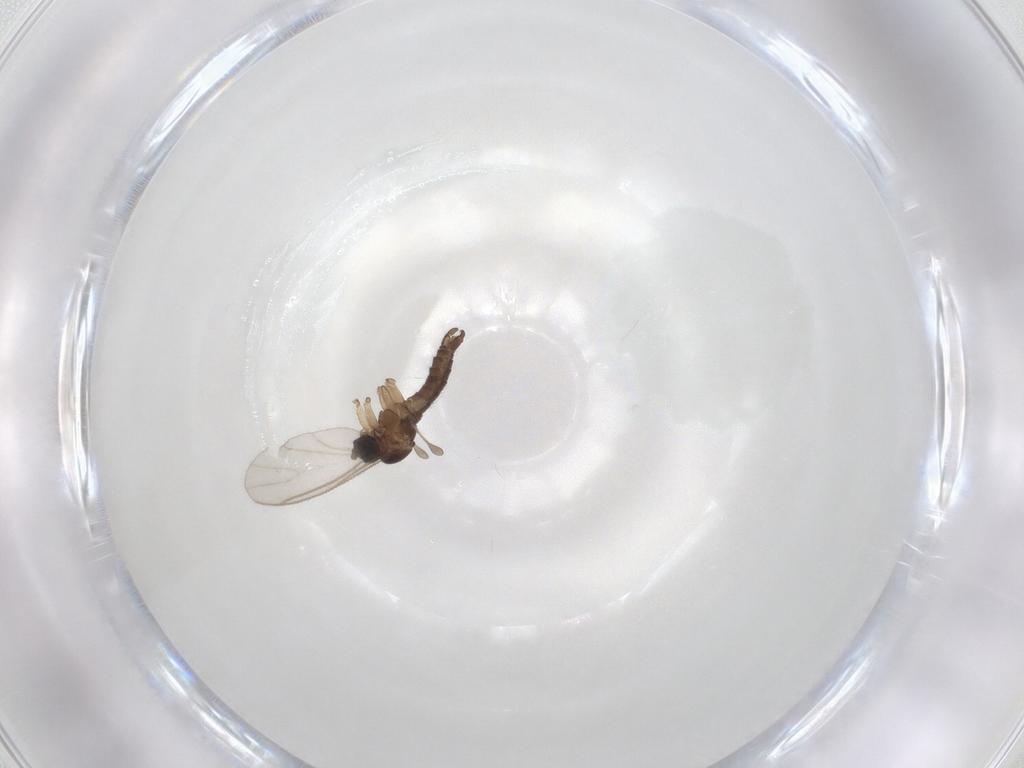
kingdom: Animalia
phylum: Arthropoda
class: Insecta
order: Diptera
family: Sciaridae
